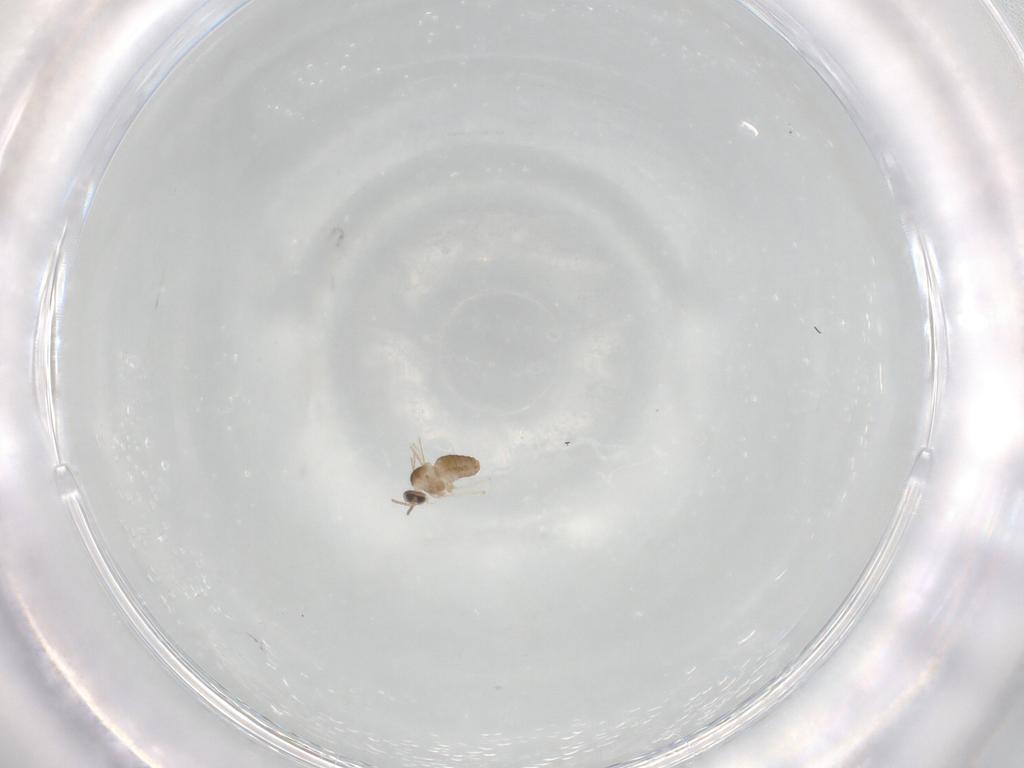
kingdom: Animalia
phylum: Arthropoda
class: Insecta
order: Diptera
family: Cecidomyiidae
